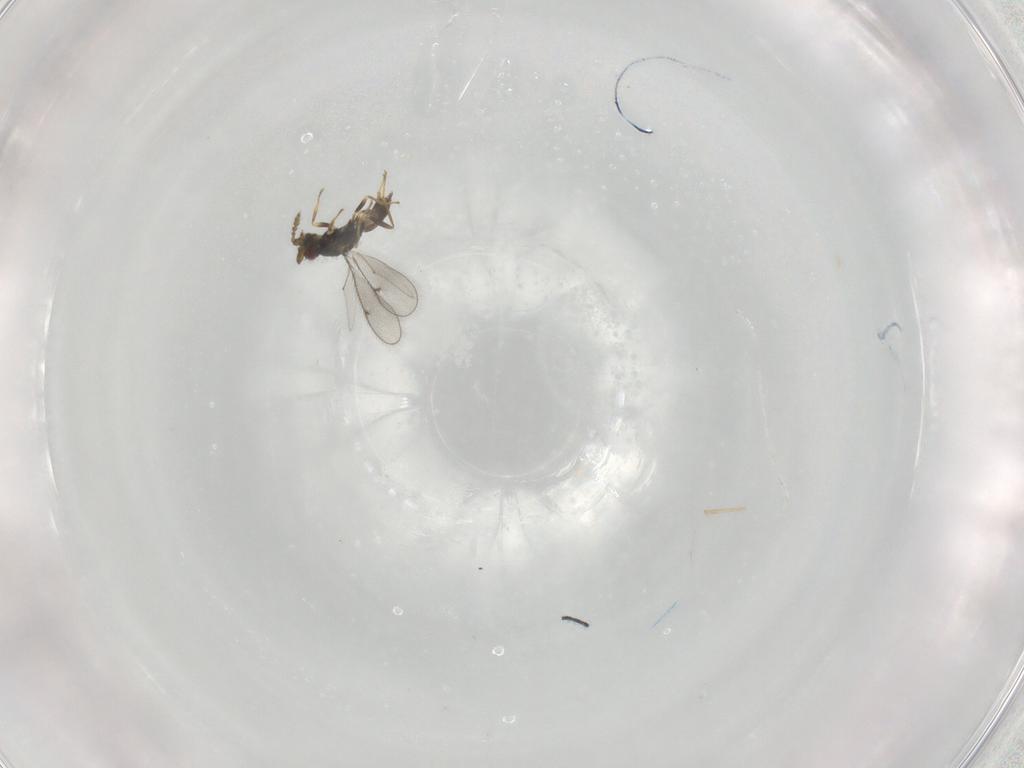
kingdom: Animalia
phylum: Arthropoda
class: Insecta
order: Hymenoptera
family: Eulophidae
